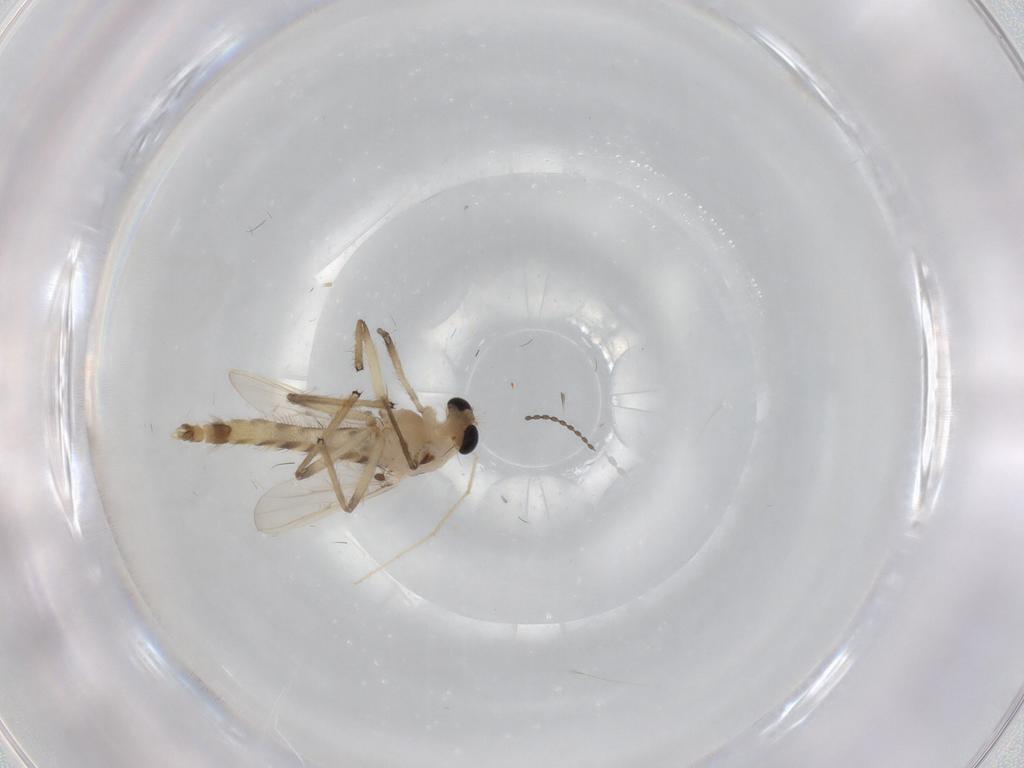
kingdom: Animalia
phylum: Arthropoda
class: Insecta
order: Diptera
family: Chironomidae
